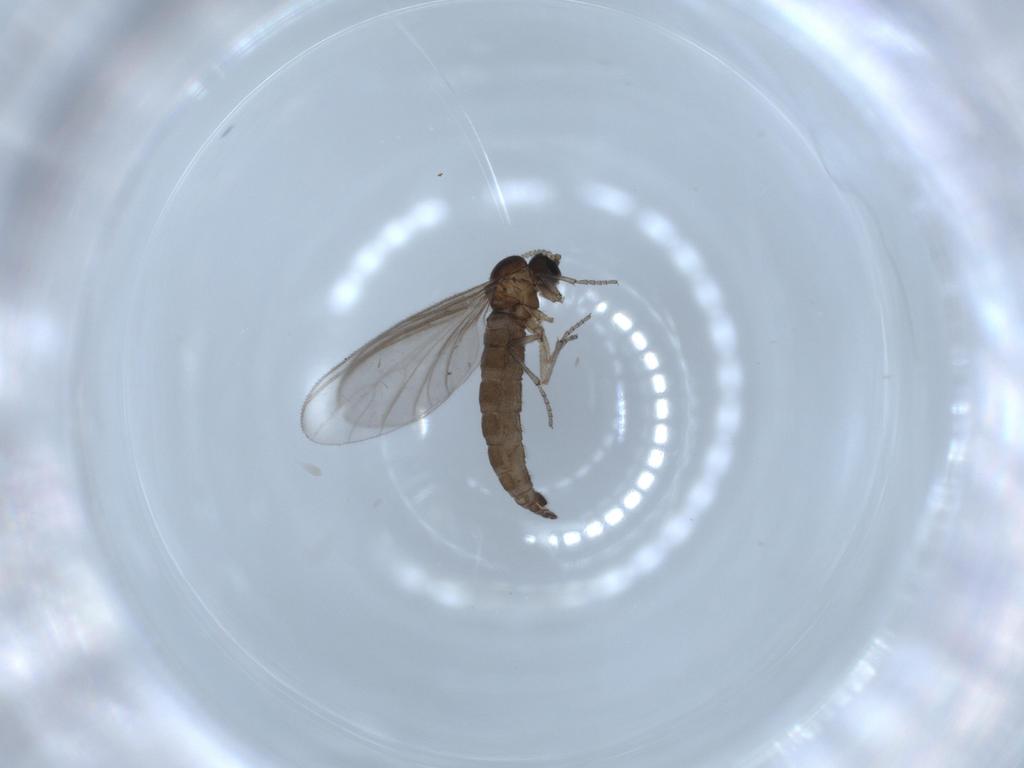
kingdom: Animalia
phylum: Arthropoda
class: Insecta
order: Diptera
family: Sciaridae
